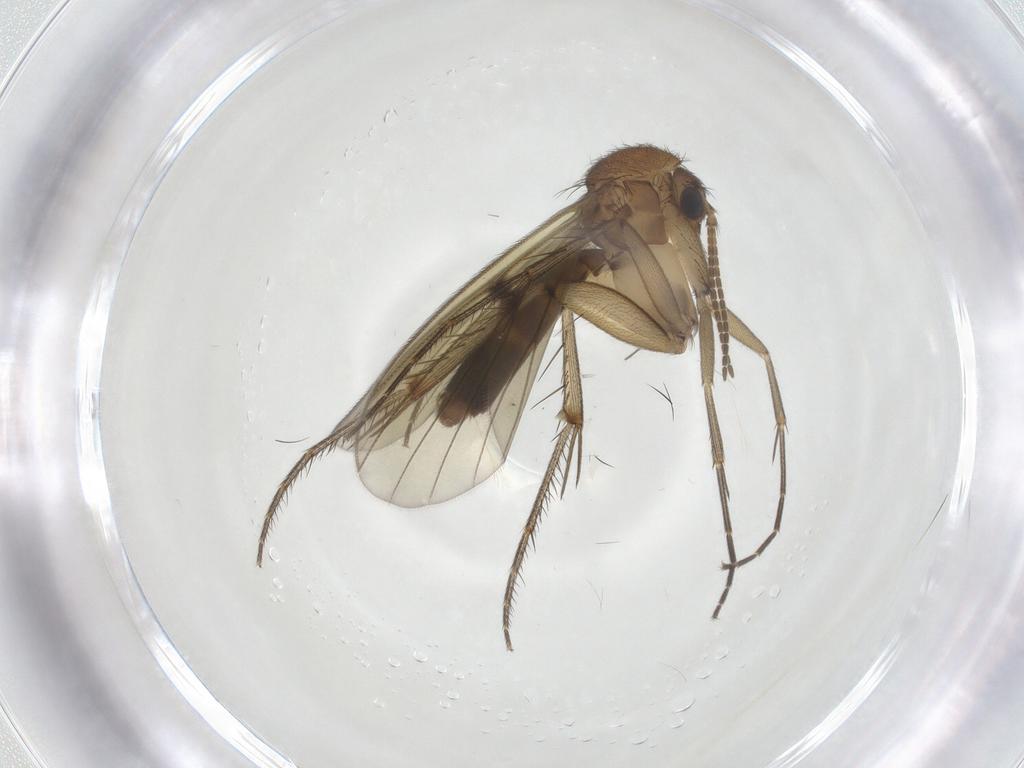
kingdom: Animalia
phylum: Arthropoda
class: Insecta
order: Diptera
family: Mycetophilidae
